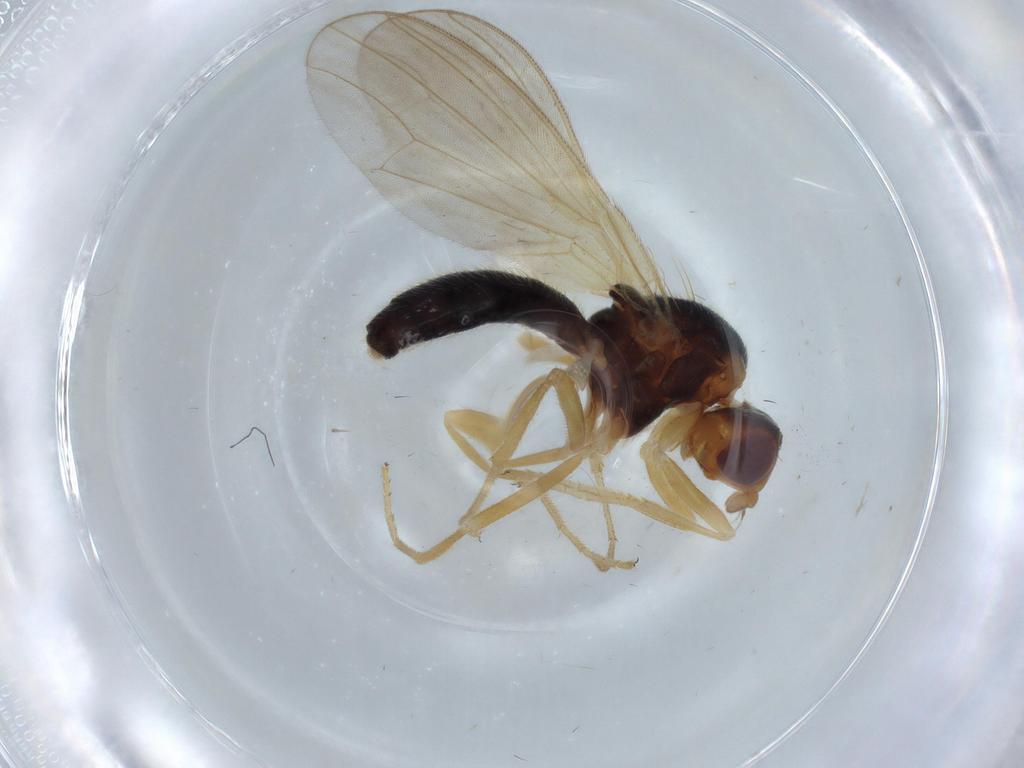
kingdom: Animalia
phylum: Arthropoda
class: Insecta
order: Diptera
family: Chironomidae
